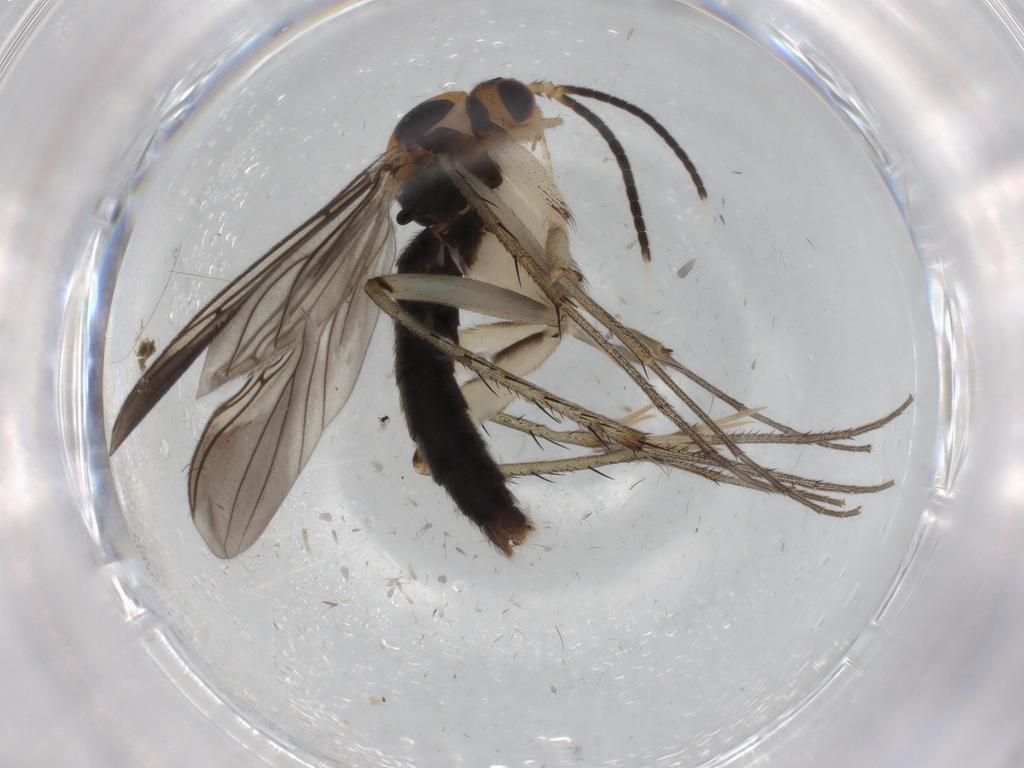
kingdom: Animalia
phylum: Arthropoda
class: Insecta
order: Diptera
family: Mycetophilidae
